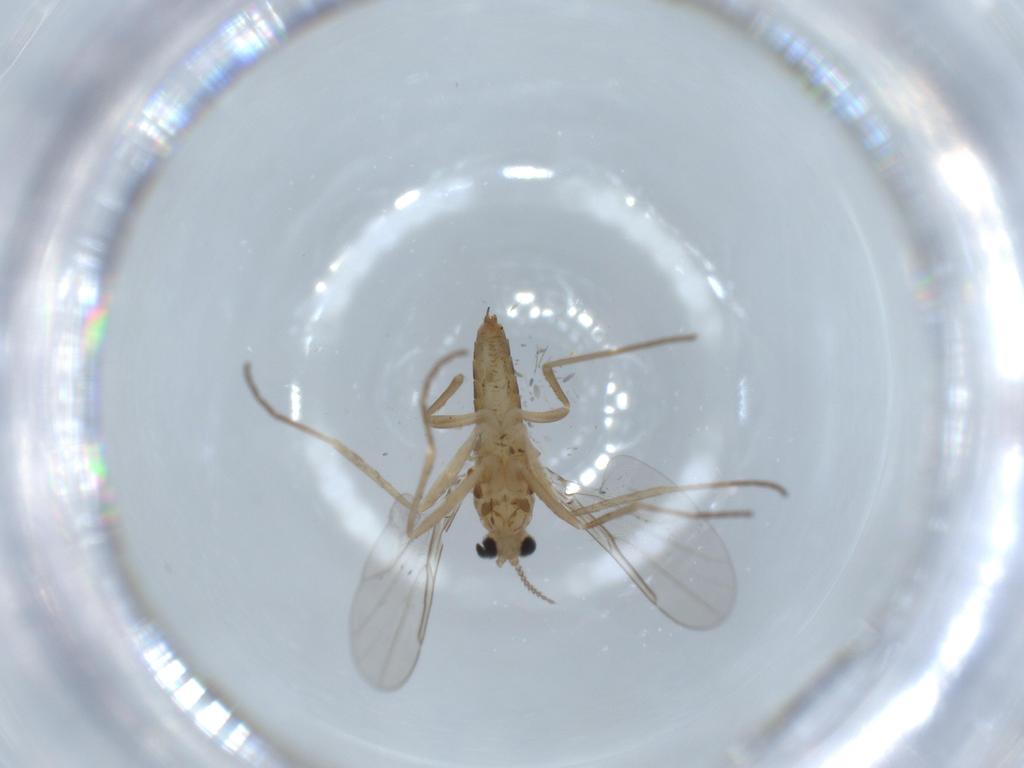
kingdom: Animalia
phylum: Arthropoda
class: Insecta
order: Diptera
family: Cecidomyiidae
